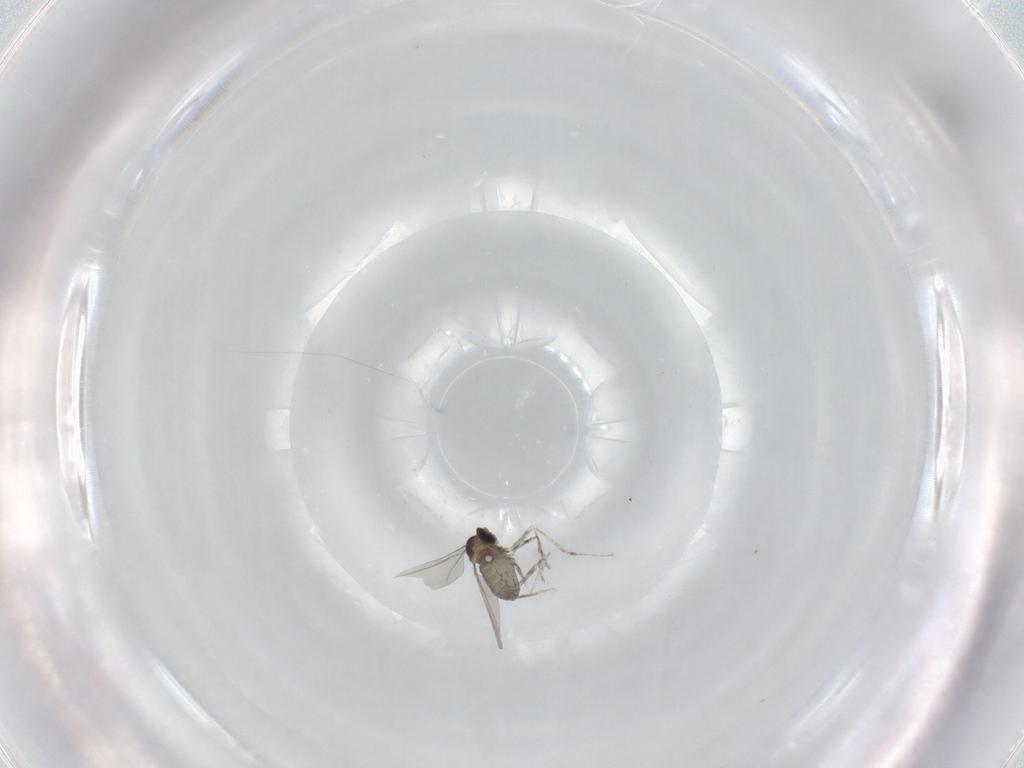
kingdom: Animalia
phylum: Arthropoda
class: Insecta
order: Diptera
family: Cecidomyiidae
